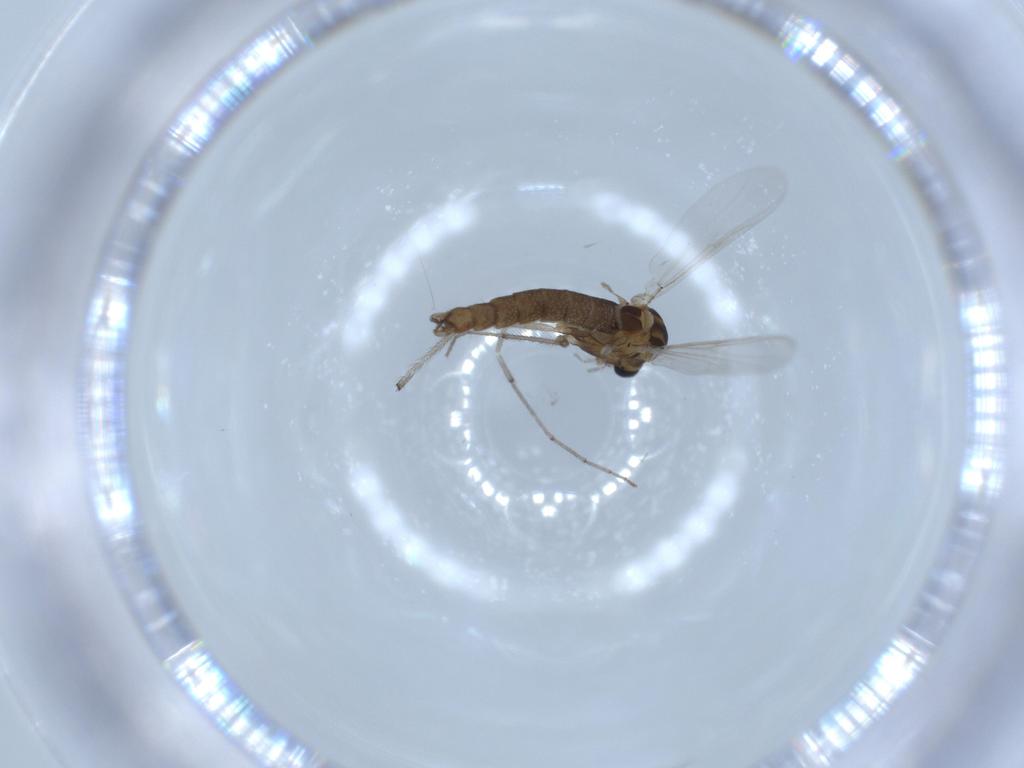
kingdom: Animalia
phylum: Arthropoda
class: Insecta
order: Diptera
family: Chironomidae
